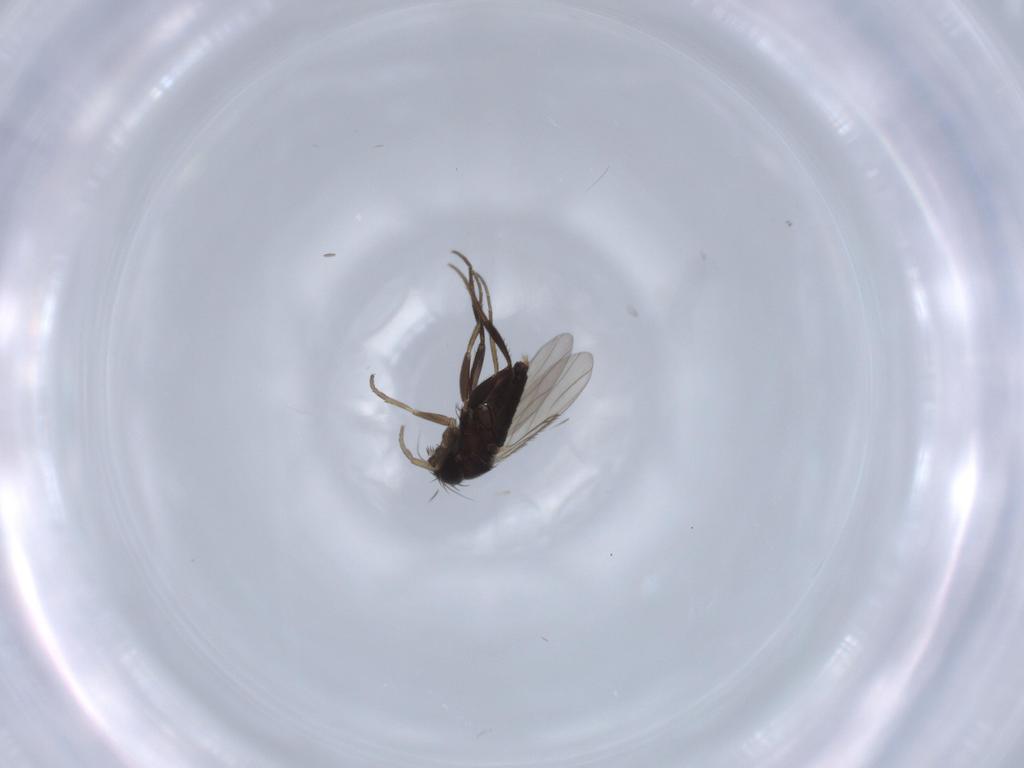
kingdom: Animalia
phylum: Arthropoda
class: Insecta
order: Diptera
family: Phoridae
